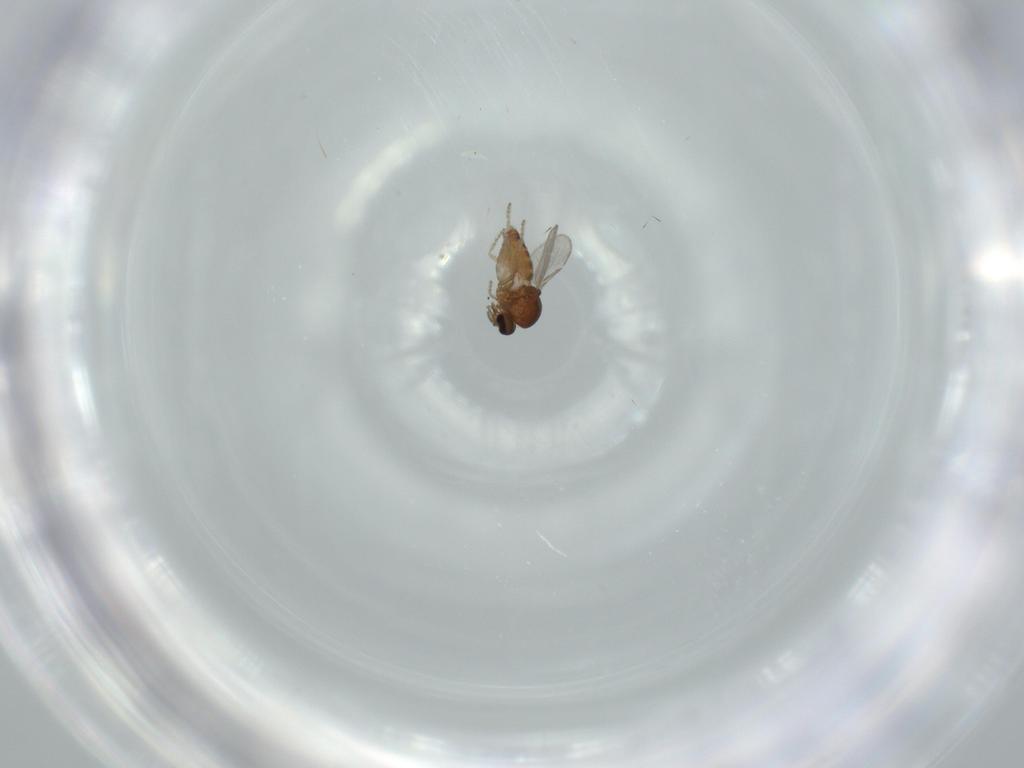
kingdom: Animalia
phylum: Arthropoda
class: Insecta
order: Diptera
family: Ceratopogonidae
